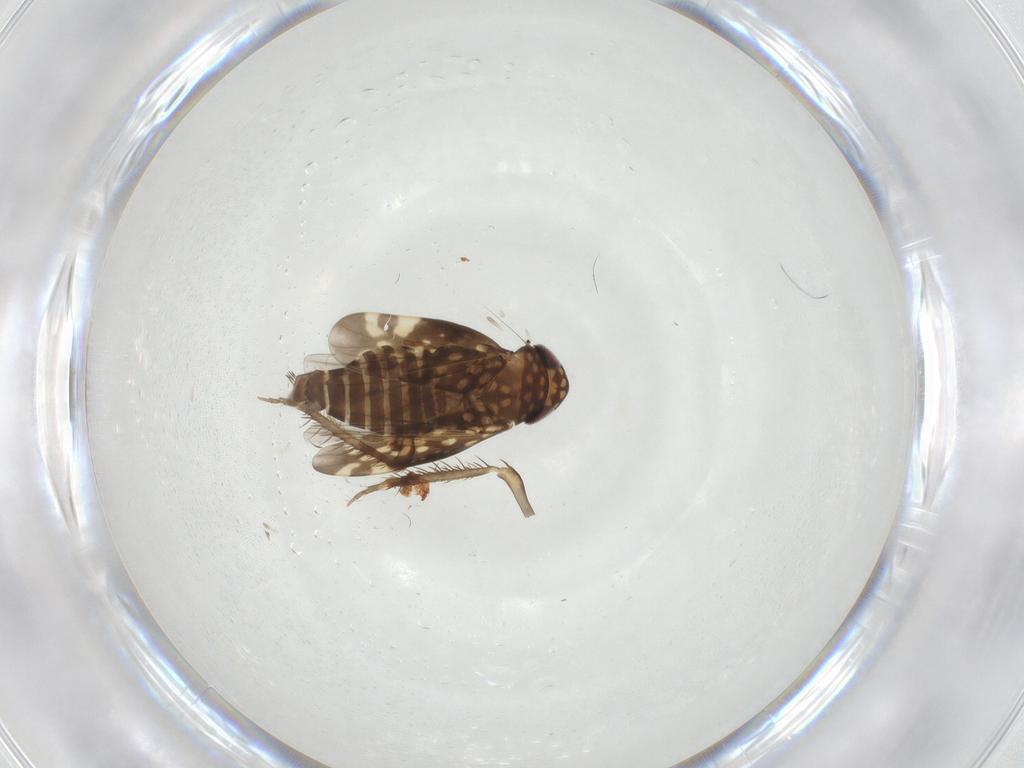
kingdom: Animalia
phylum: Arthropoda
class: Insecta
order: Hemiptera
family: Cicadellidae
